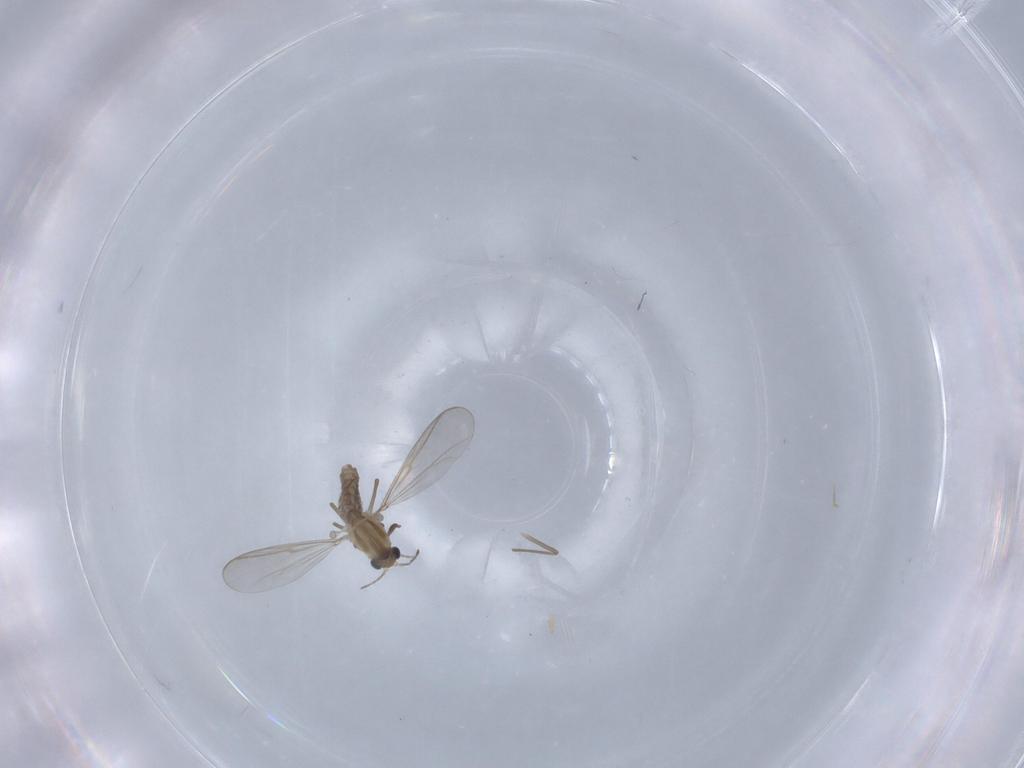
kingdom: Animalia
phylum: Arthropoda
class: Insecta
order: Diptera
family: Chironomidae
